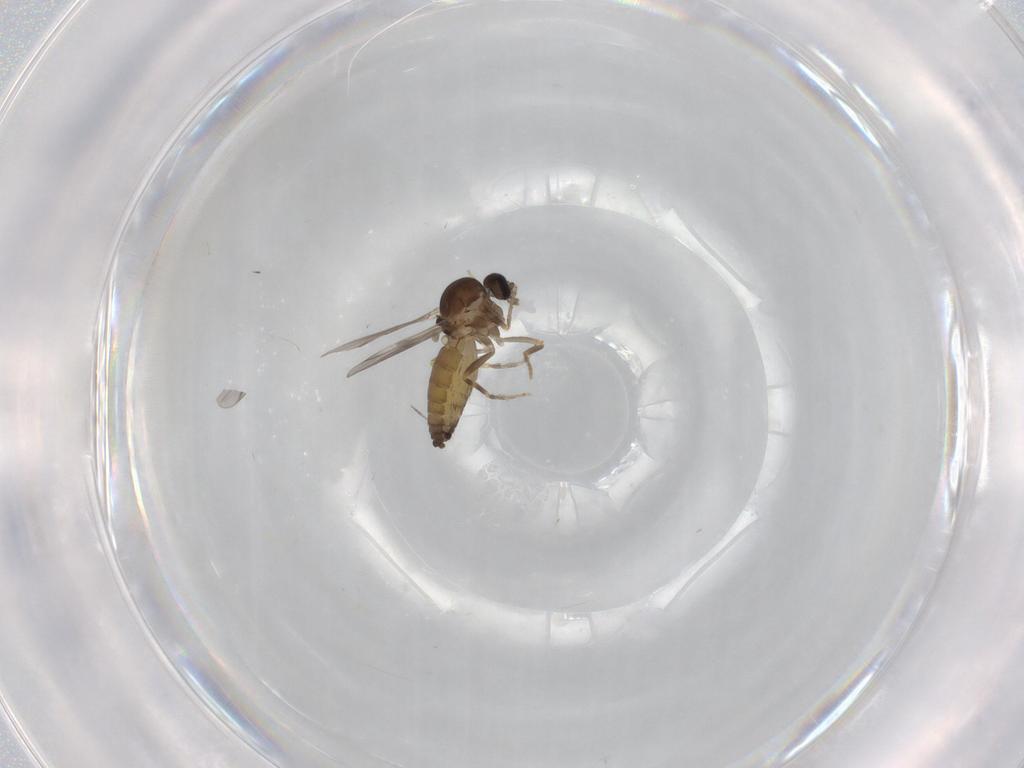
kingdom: Animalia
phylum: Arthropoda
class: Insecta
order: Diptera
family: Ceratopogonidae
